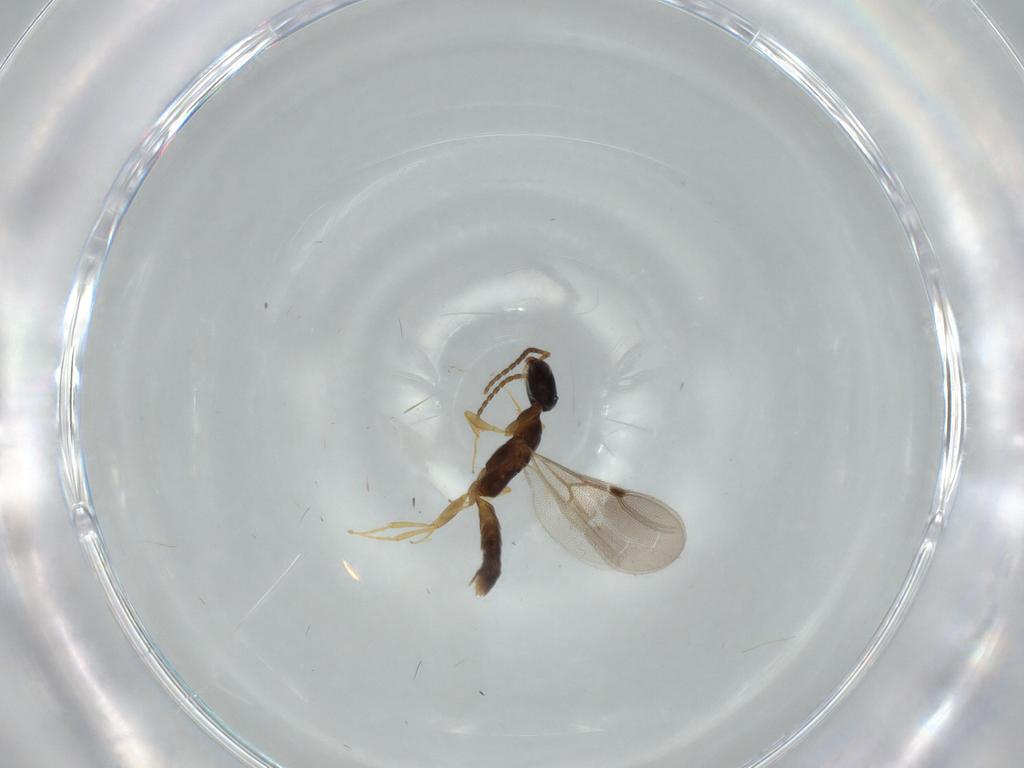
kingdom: Animalia
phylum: Arthropoda
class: Insecta
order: Hymenoptera
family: Bethylidae
